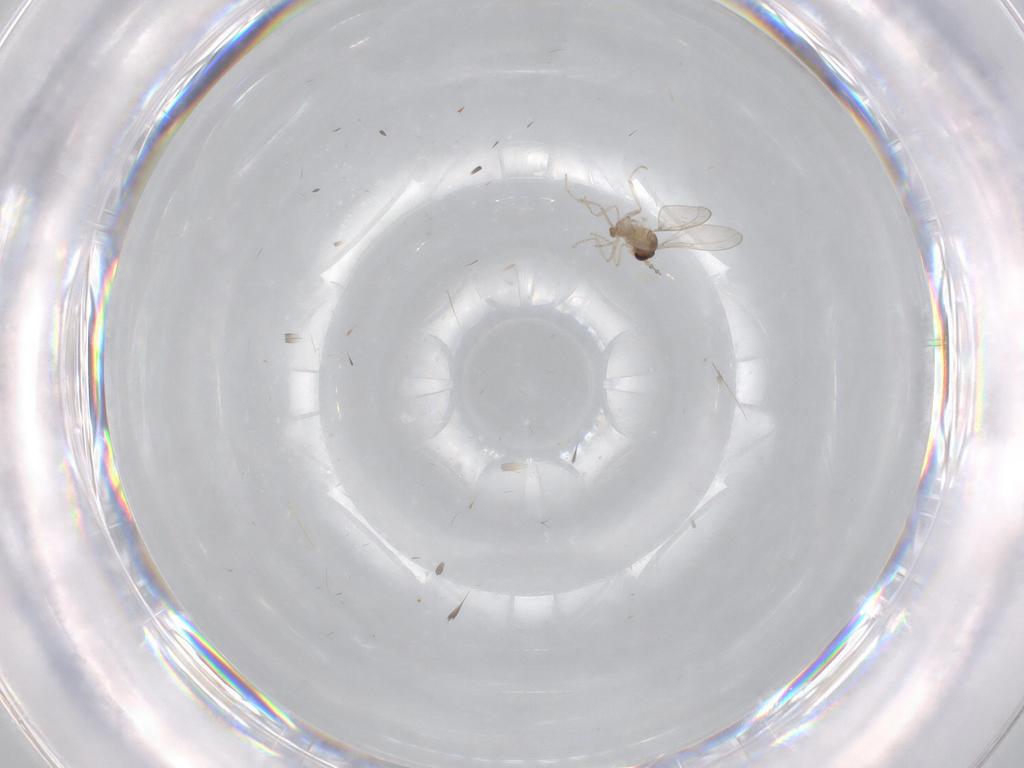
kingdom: Animalia
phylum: Arthropoda
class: Insecta
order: Diptera
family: Cecidomyiidae
